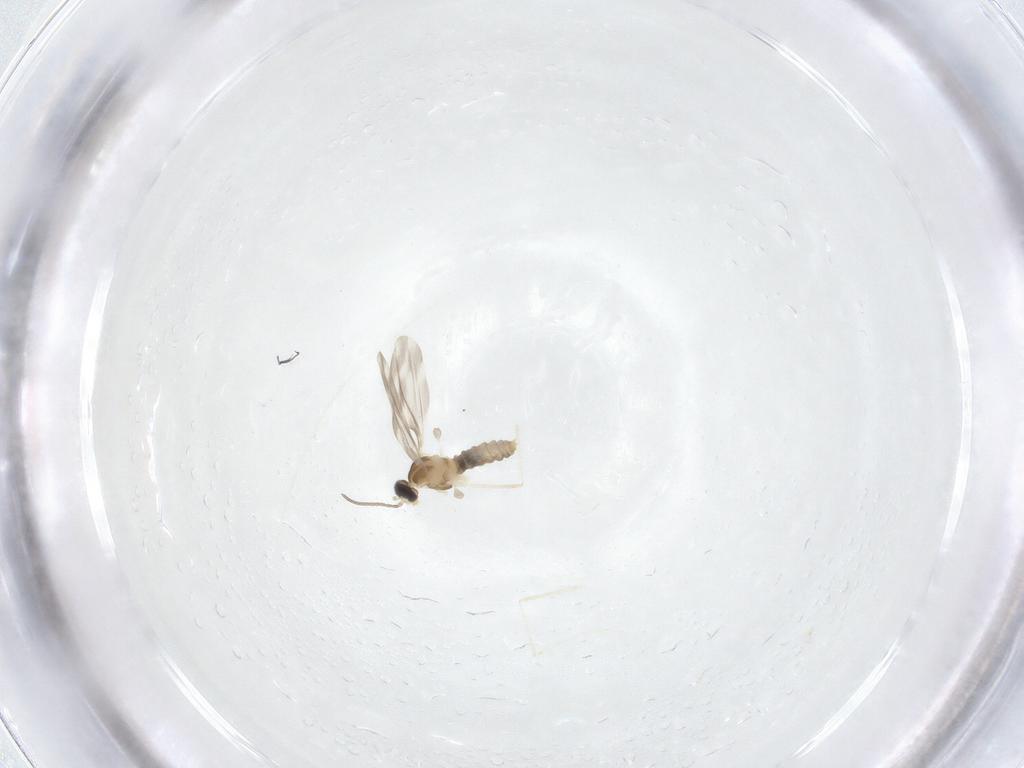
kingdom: Animalia
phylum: Arthropoda
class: Insecta
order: Diptera
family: Cecidomyiidae
